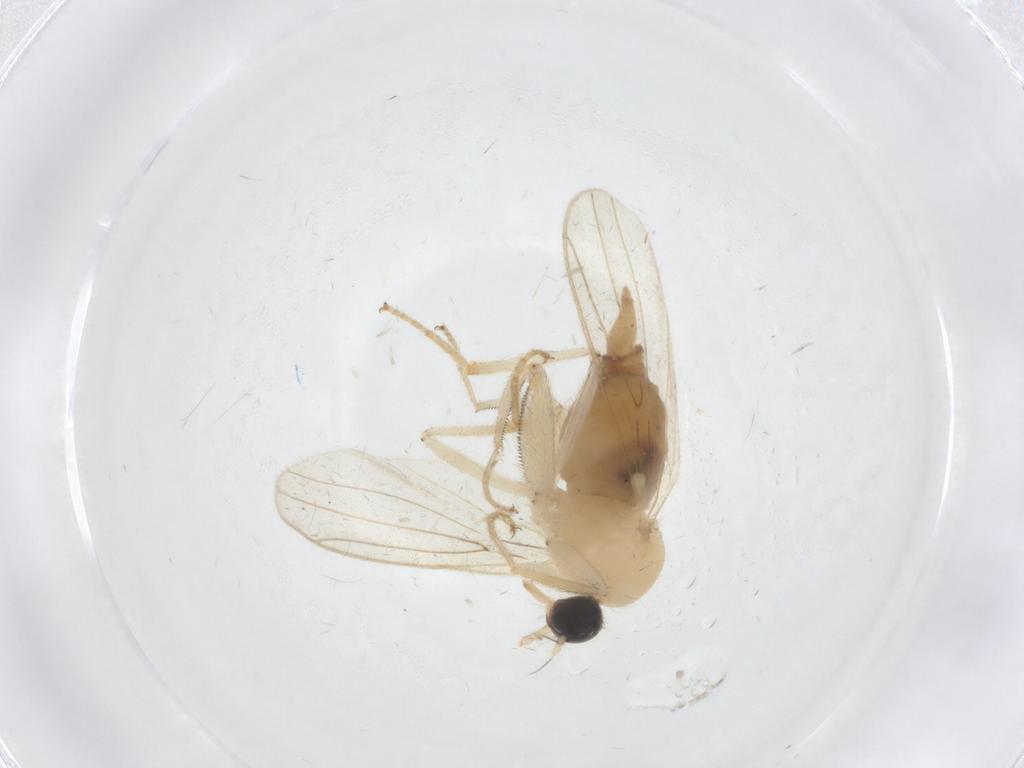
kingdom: Animalia
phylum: Arthropoda
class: Insecta
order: Diptera
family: Hybotidae
